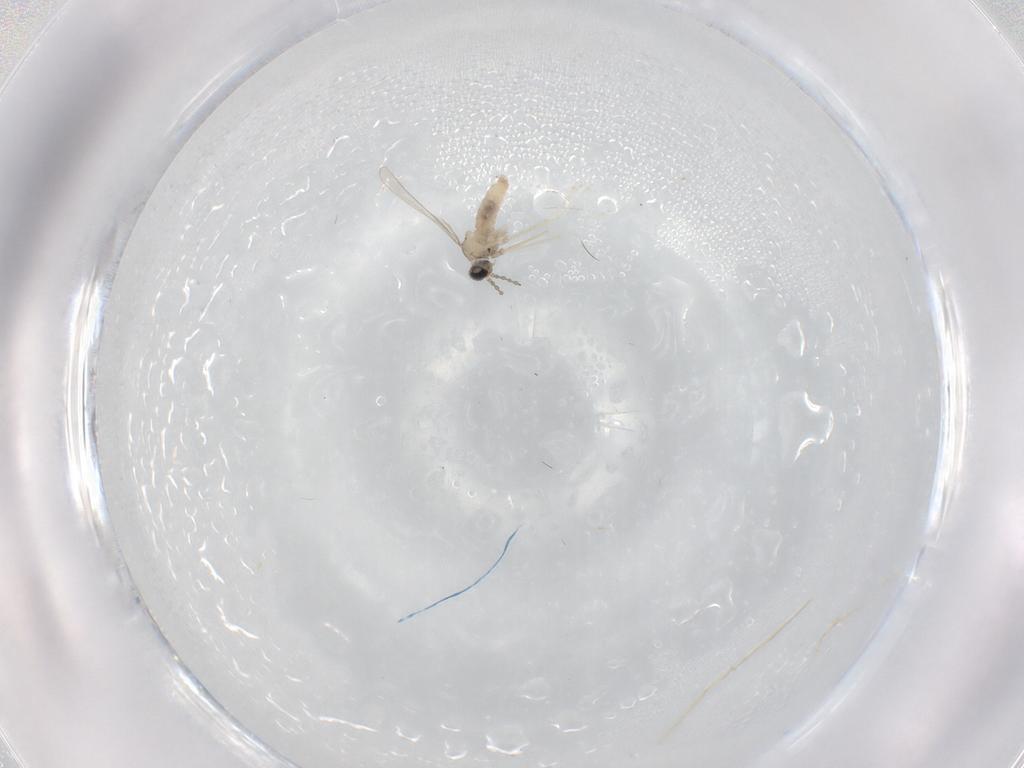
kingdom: Animalia
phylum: Arthropoda
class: Insecta
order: Diptera
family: Cecidomyiidae
